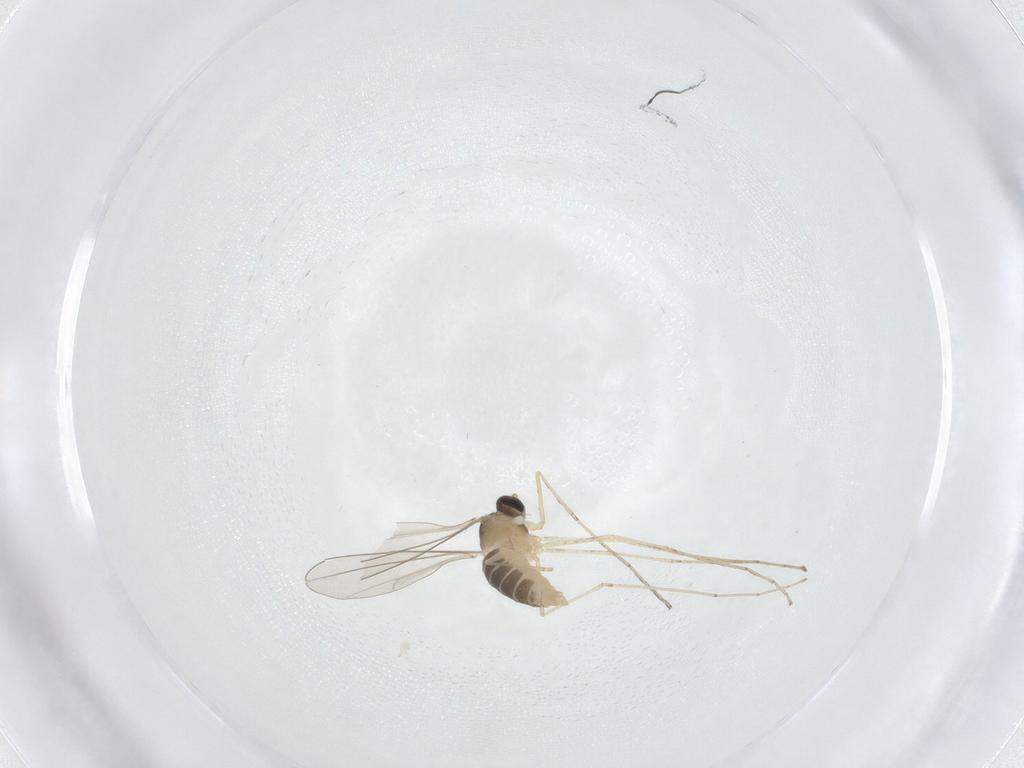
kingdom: Animalia
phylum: Arthropoda
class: Insecta
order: Diptera
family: Cecidomyiidae
